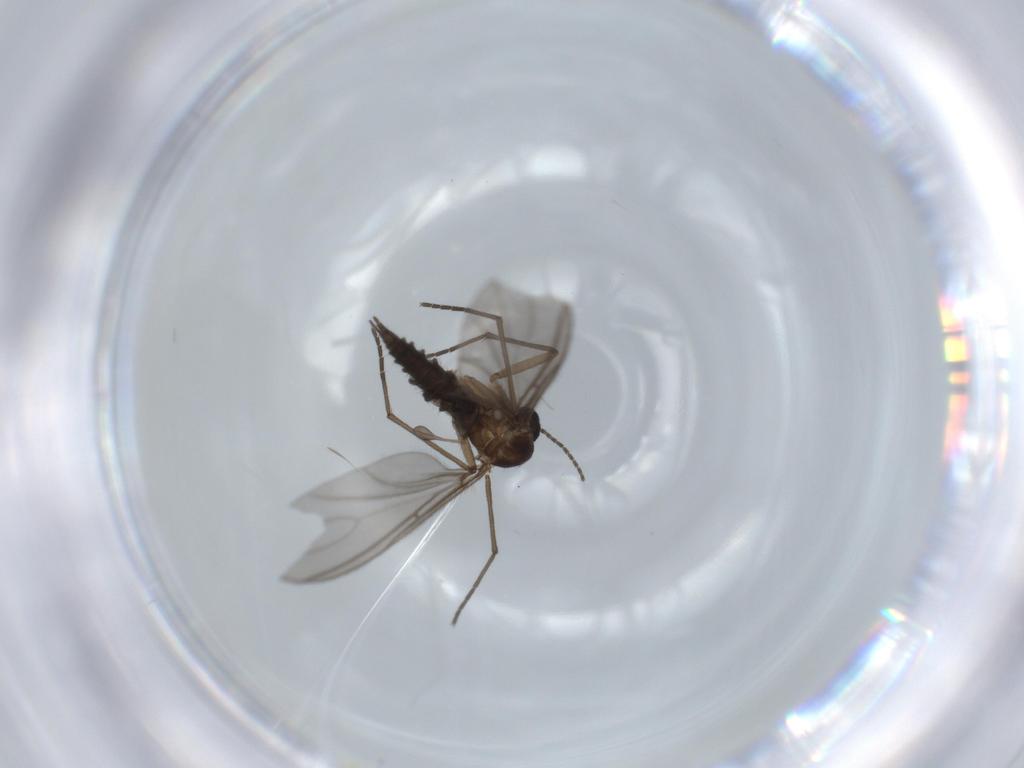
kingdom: Animalia
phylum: Arthropoda
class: Insecta
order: Diptera
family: Sciaridae
